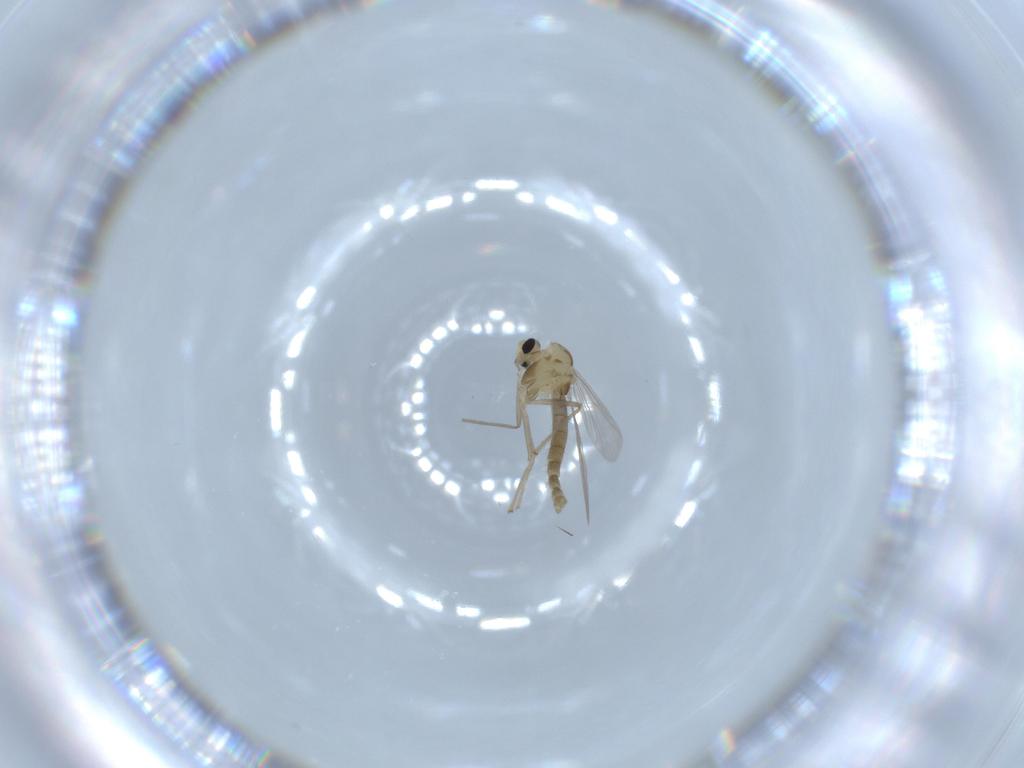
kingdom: Animalia
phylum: Arthropoda
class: Insecta
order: Diptera
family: Chironomidae
